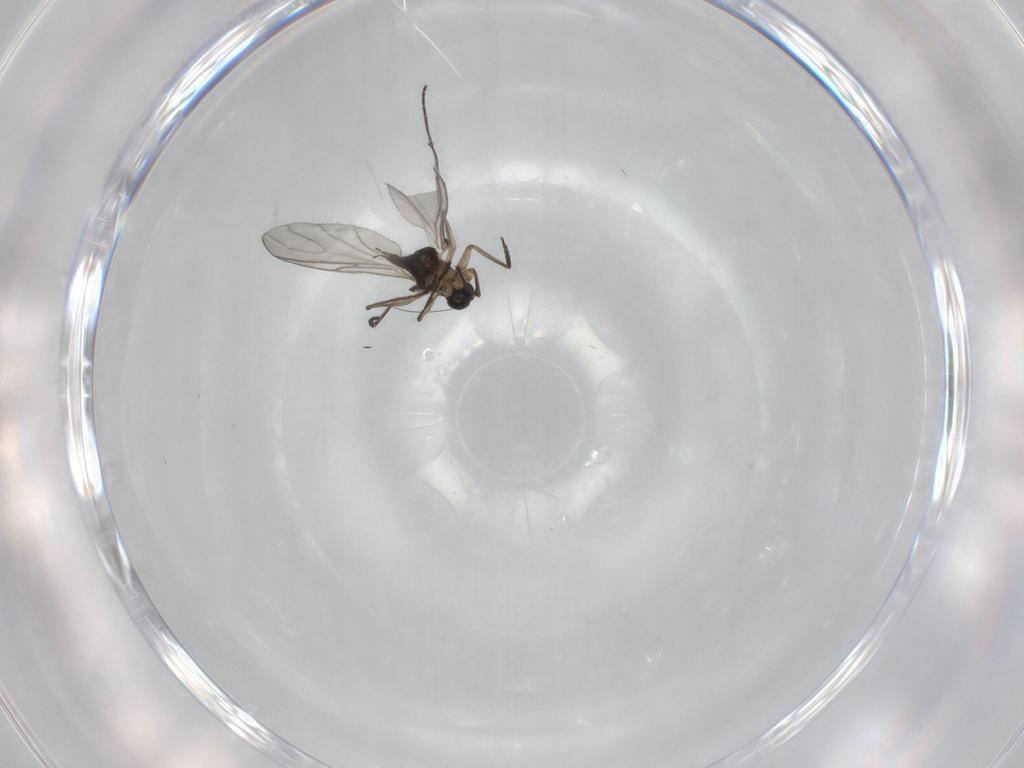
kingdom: Animalia
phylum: Arthropoda
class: Insecta
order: Diptera
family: Sciaridae
